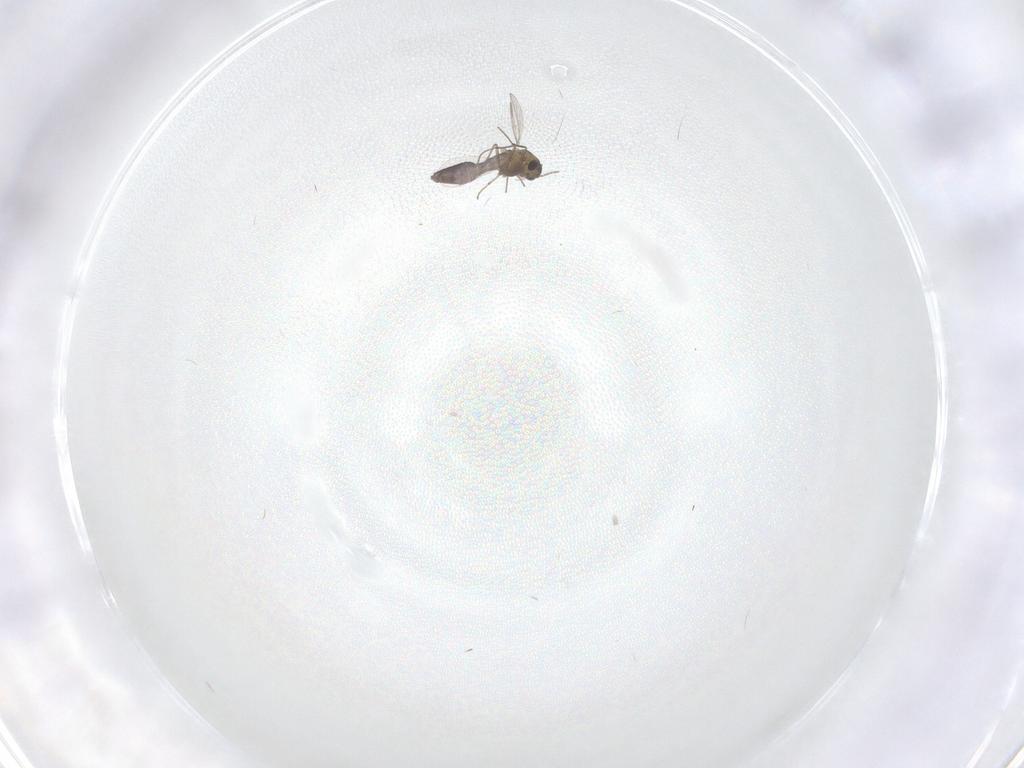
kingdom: Animalia
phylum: Arthropoda
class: Insecta
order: Diptera
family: Chironomidae
